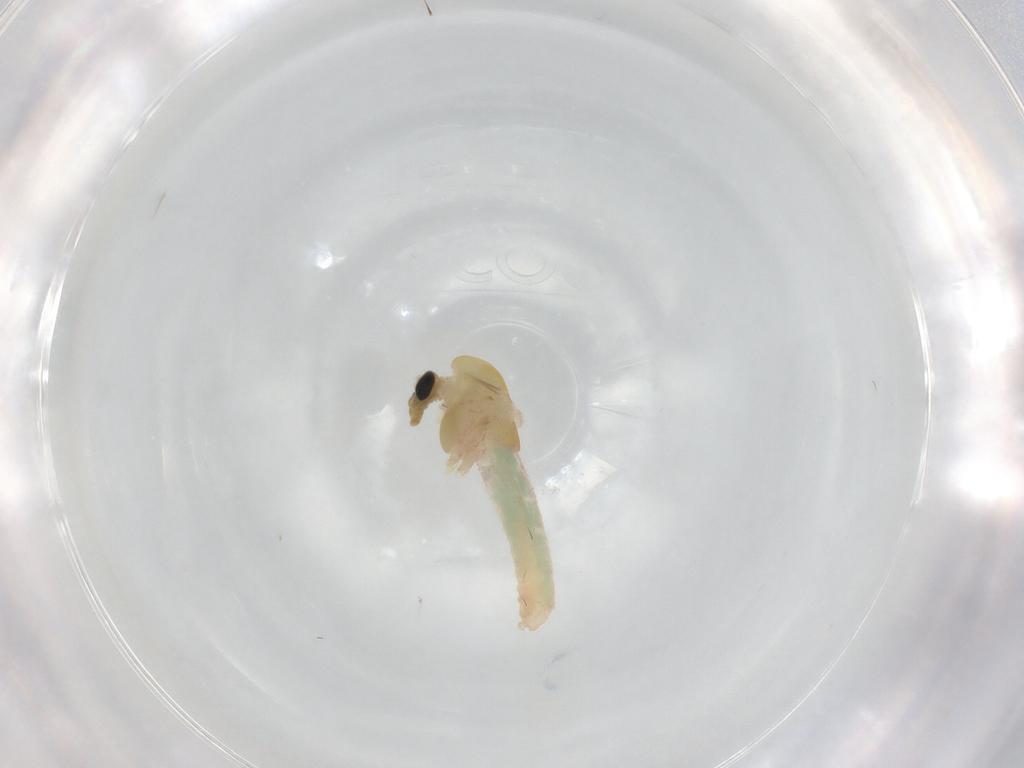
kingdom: Animalia
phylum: Arthropoda
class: Insecta
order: Diptera
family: Chironomidae
